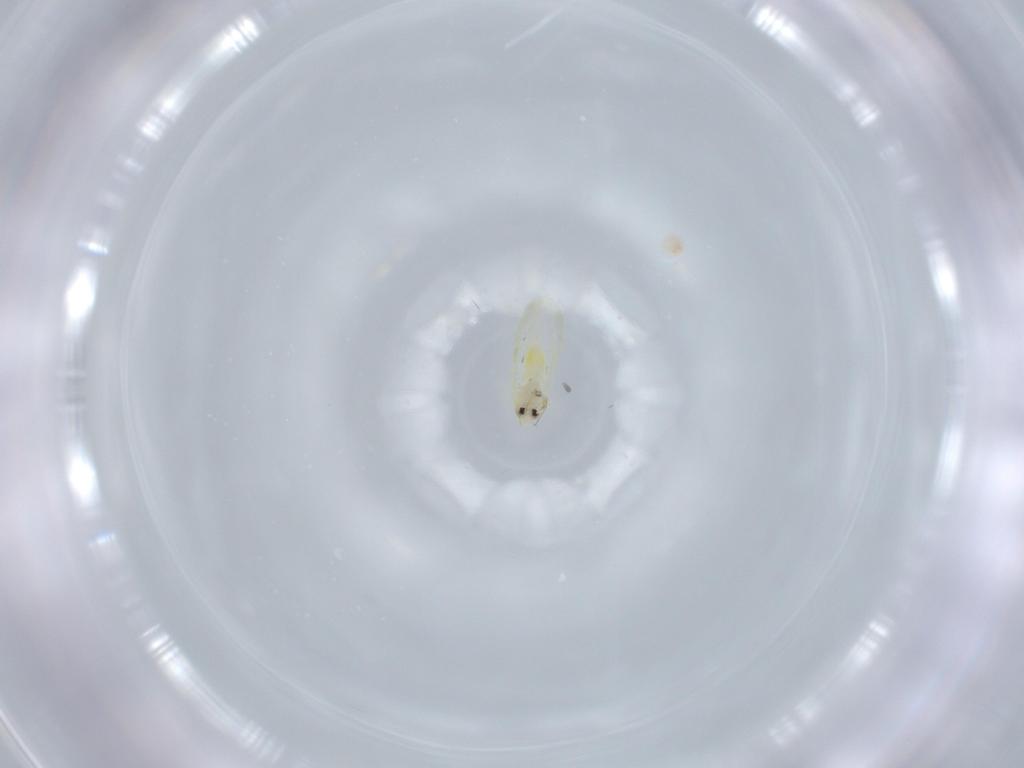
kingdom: Animalia
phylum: Arthropoda
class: Insecta
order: Hemiptera
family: Aleyrodidae
